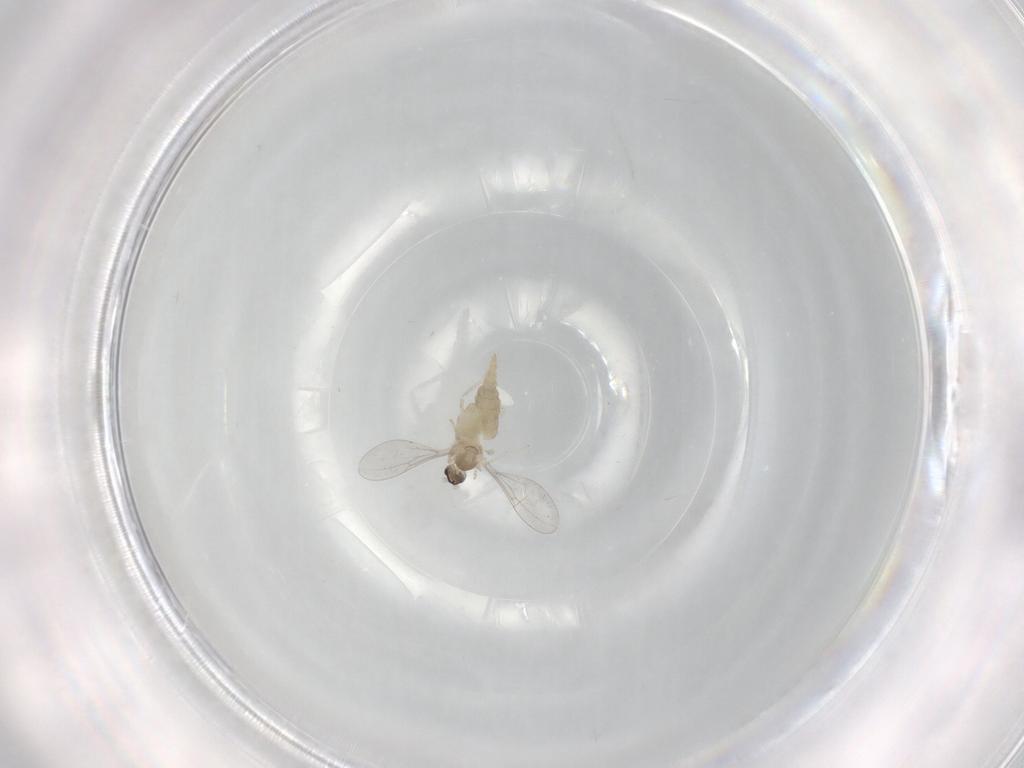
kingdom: Animalia
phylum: Arthropoda
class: Insecta
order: Diptera
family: Cecidomyiidae
